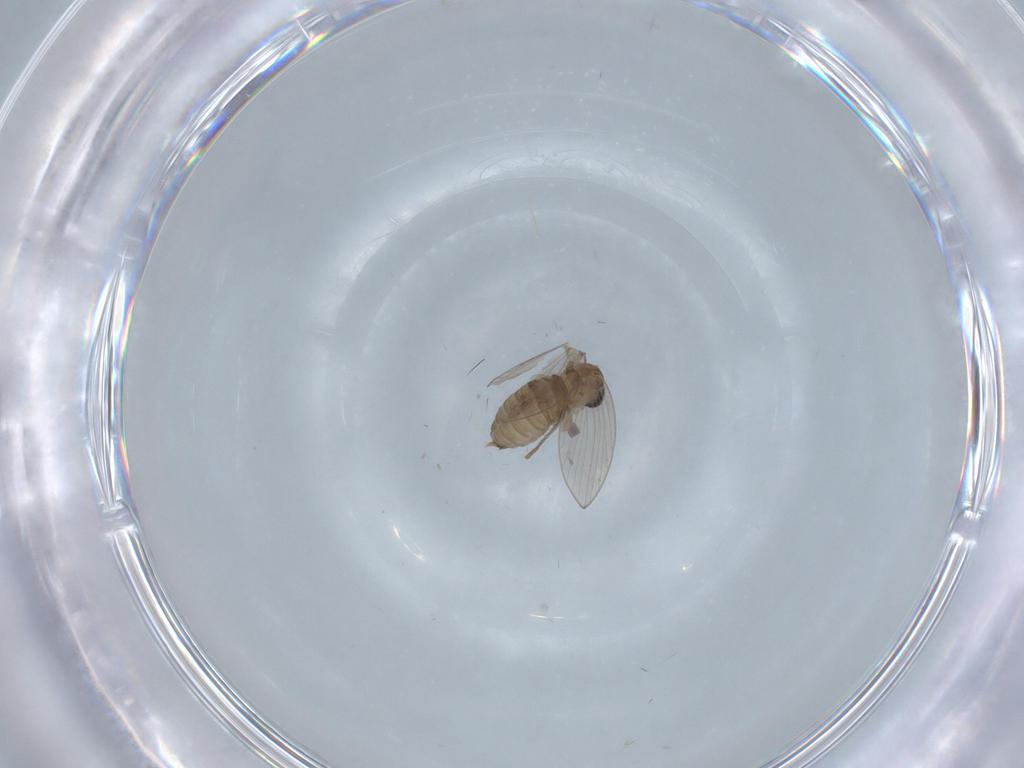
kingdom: Animalia
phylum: Arthropoda
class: Insecta
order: Diptera
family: Psychodidae
